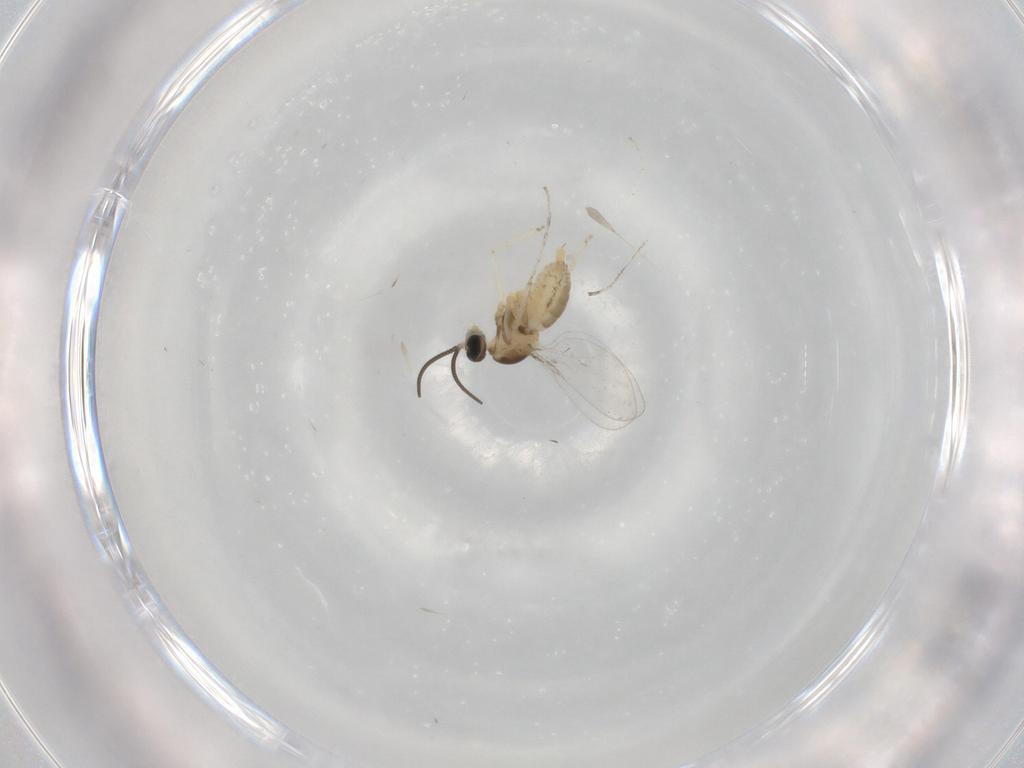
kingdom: Animalia
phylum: Arthropoda
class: Insecta
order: Diptera
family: Cecidomyiidae
